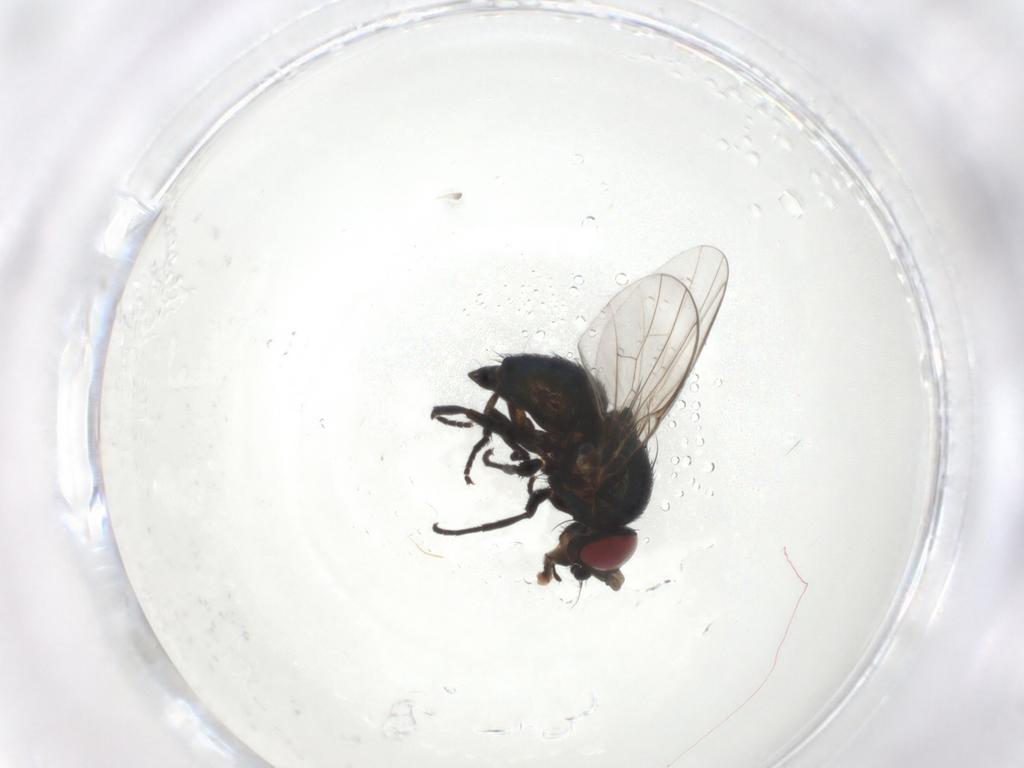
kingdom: Animalia
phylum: Arthropoda
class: Insecta
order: Diptera
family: Agromyzidae
